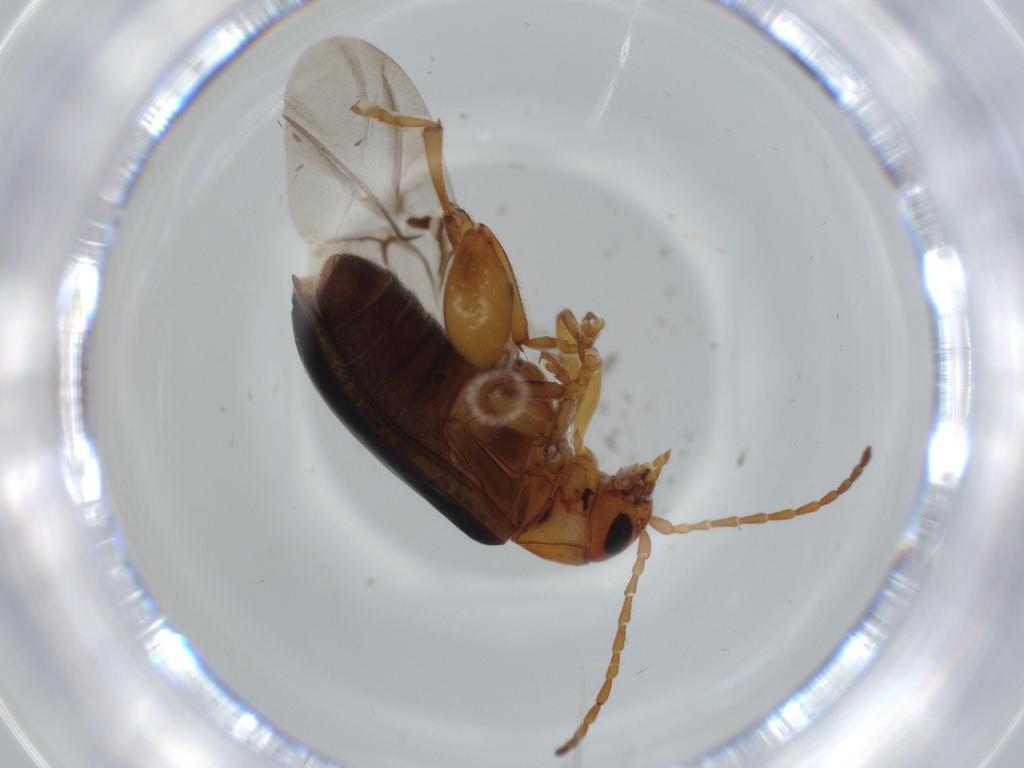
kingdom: Animalia
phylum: Arthropoda
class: Insecta
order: Coleoptera
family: Chrysomelidae
